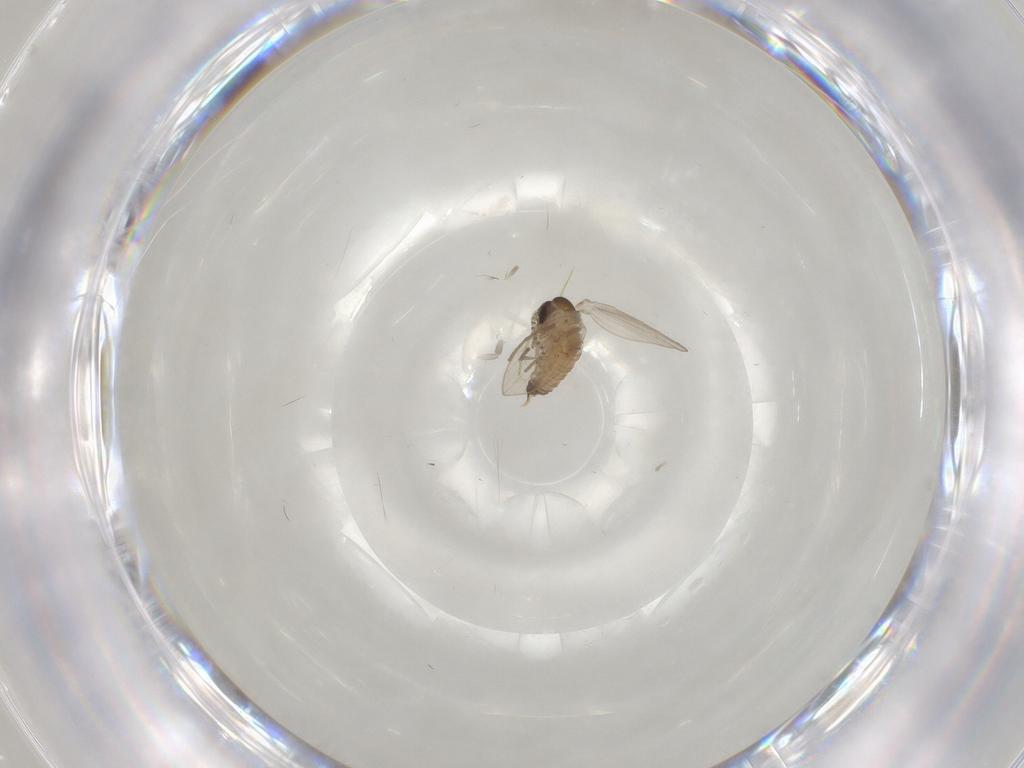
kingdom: Animalia
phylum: Arthropoda
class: Insecta
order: Diptera
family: Psychodidae
